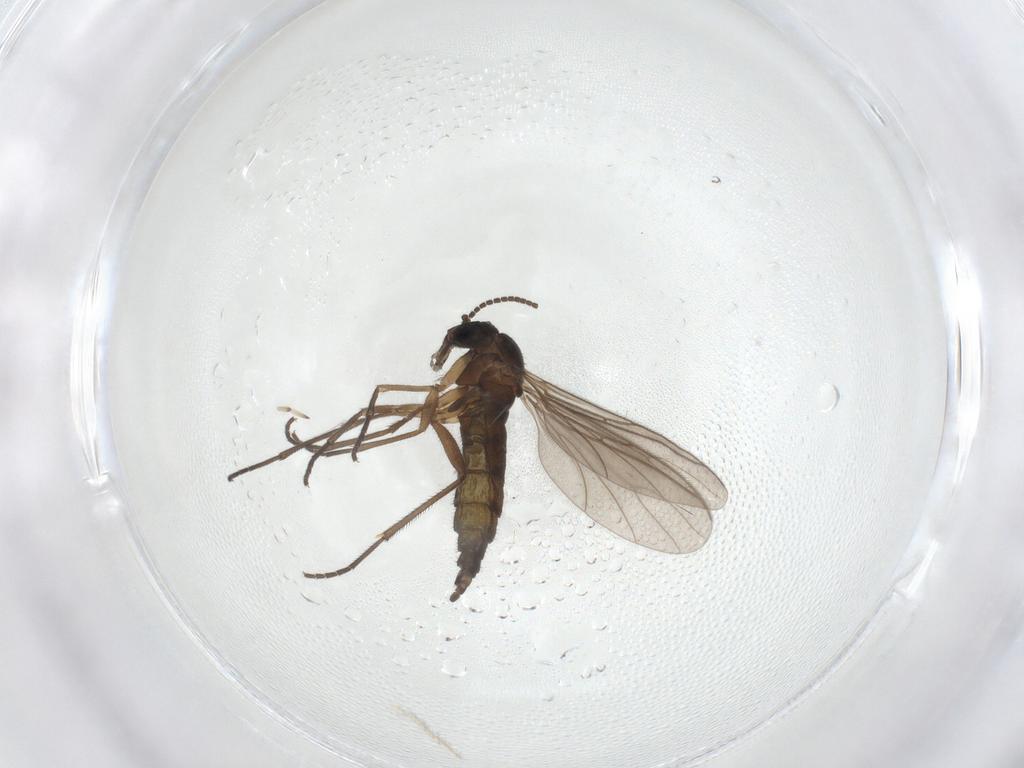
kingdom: Animalia
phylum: Arthropoda
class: Insecta
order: Diptera
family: Sciaridae
